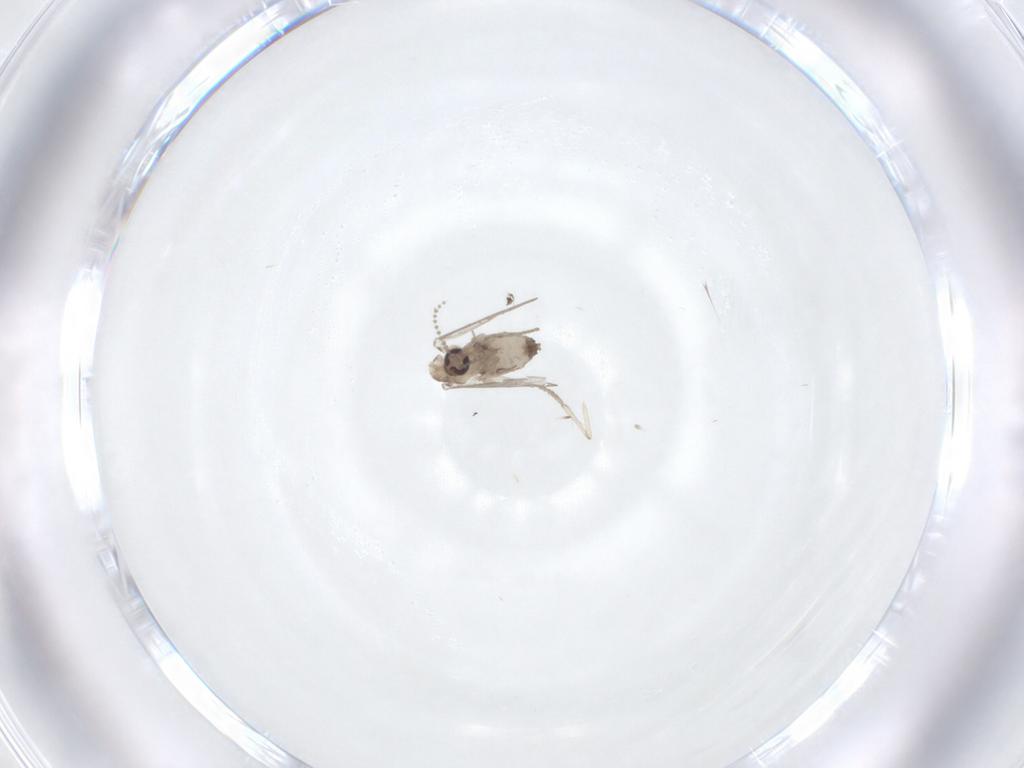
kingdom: Animalia
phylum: Arthropoda
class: Insecta
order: Diptera
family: Psychodidae
